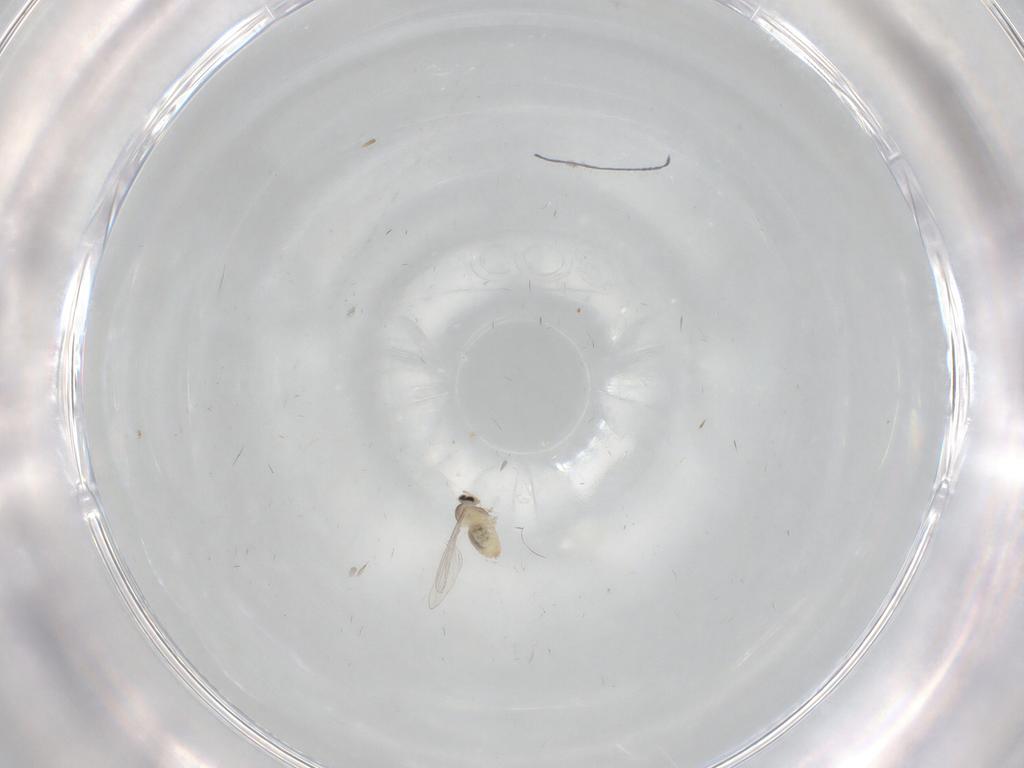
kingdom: Animalia
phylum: Arthropoda
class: Insecta
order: Diptera
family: Cecidomyiidae
